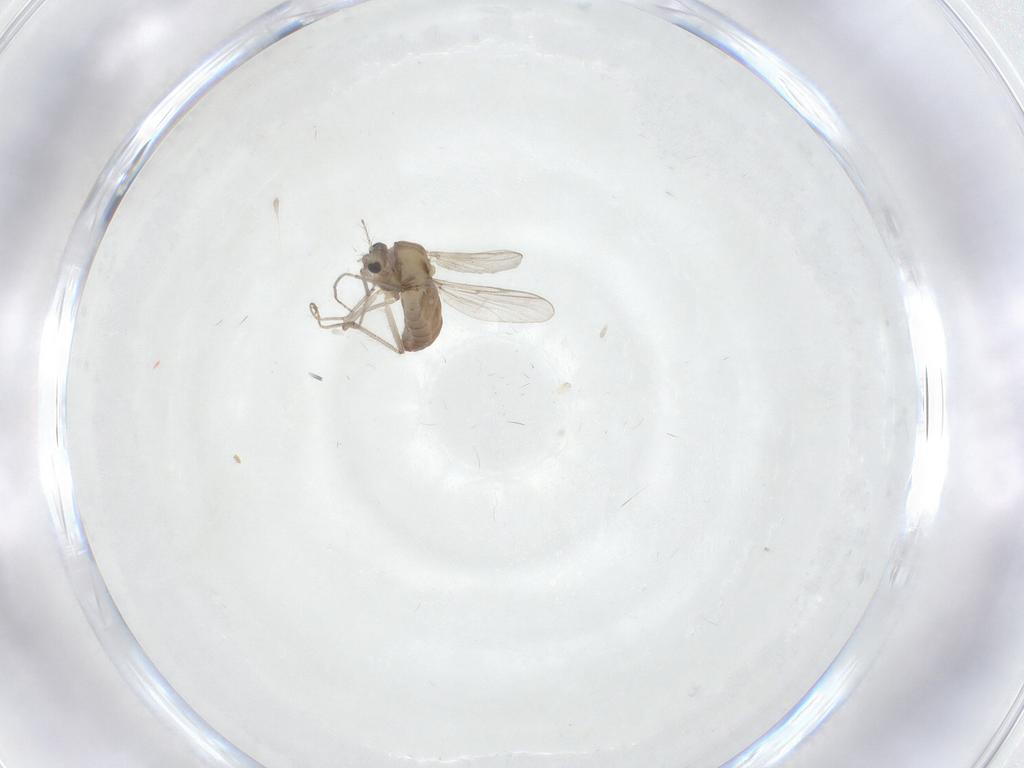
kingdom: Animalia
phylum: Arthropoda
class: Insecta
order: Diptera
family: Chironomidae
